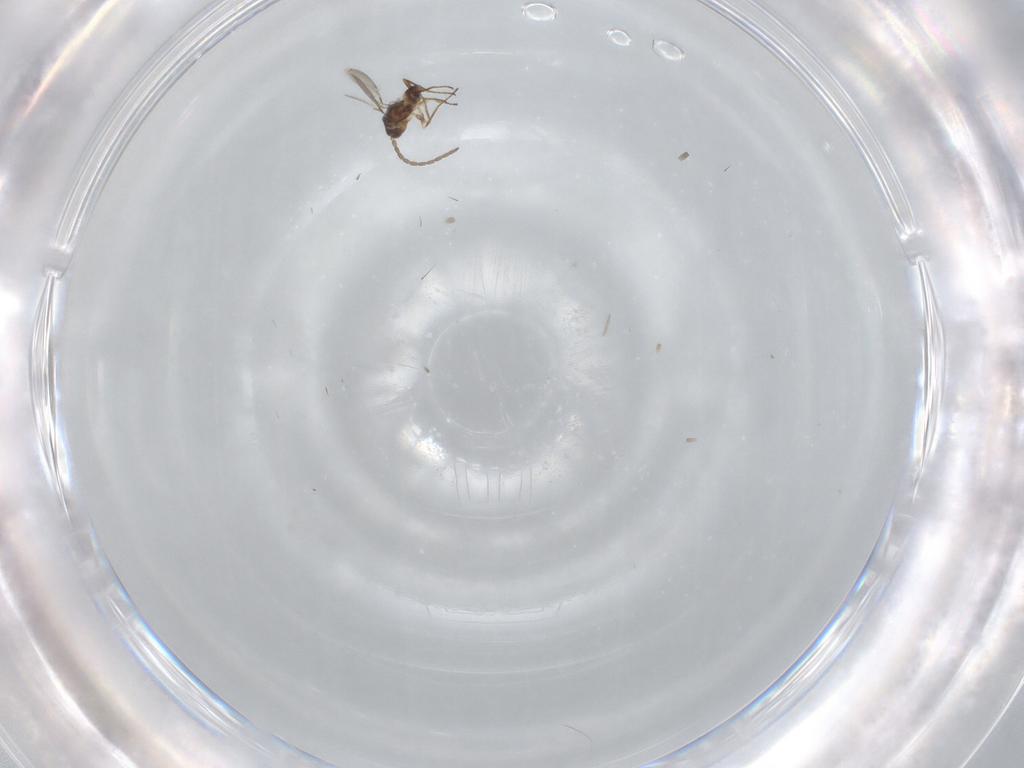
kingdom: Animalia
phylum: Arthropoda
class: Insecta
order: Hymenoptera
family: Mymaridae
